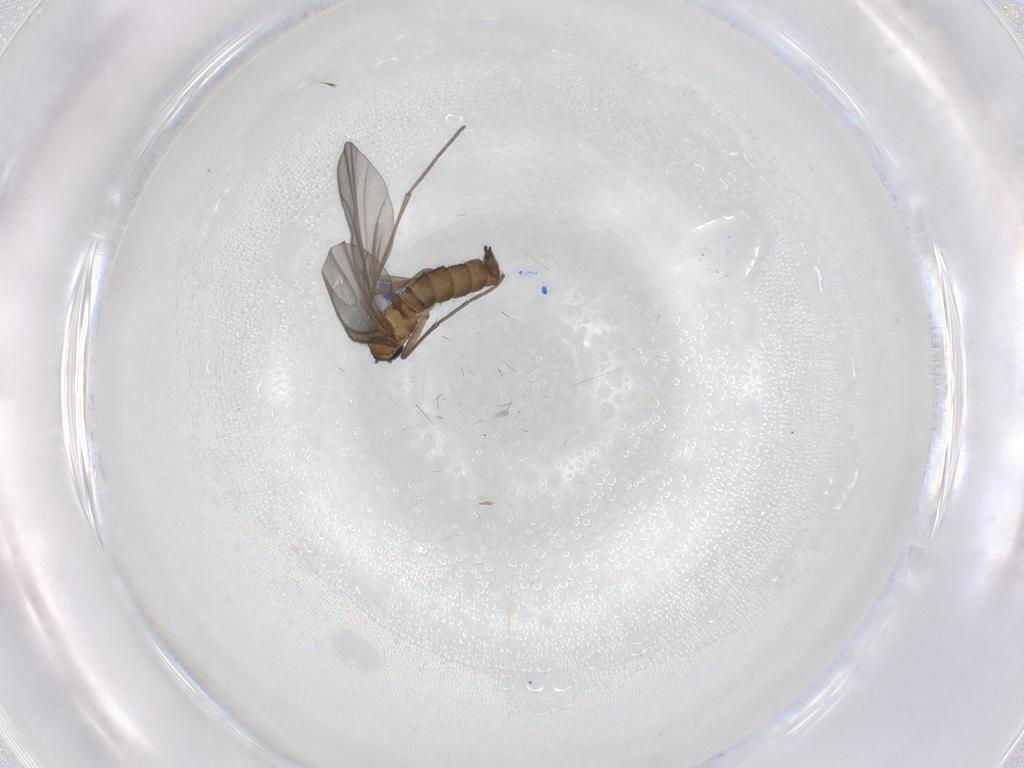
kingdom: Animalia
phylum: Arthropoda
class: Insecta
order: Diptera
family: Sciaridae
